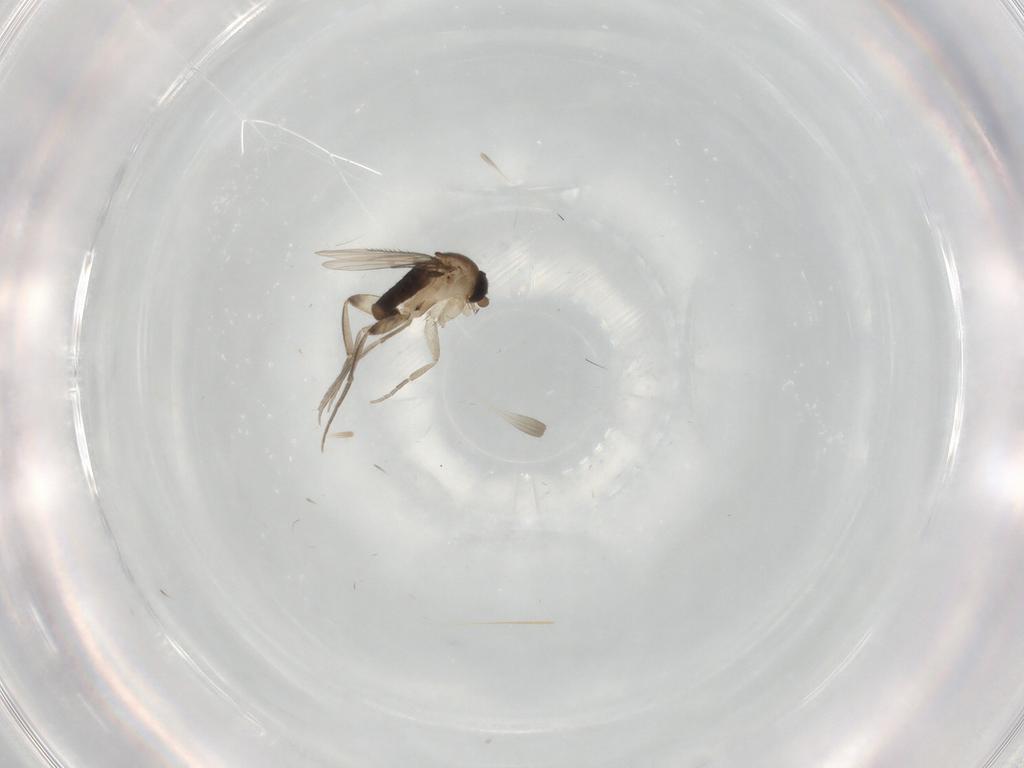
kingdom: Animalia
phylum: Arthropoda
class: Insecta
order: Diptera
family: Phoridae
